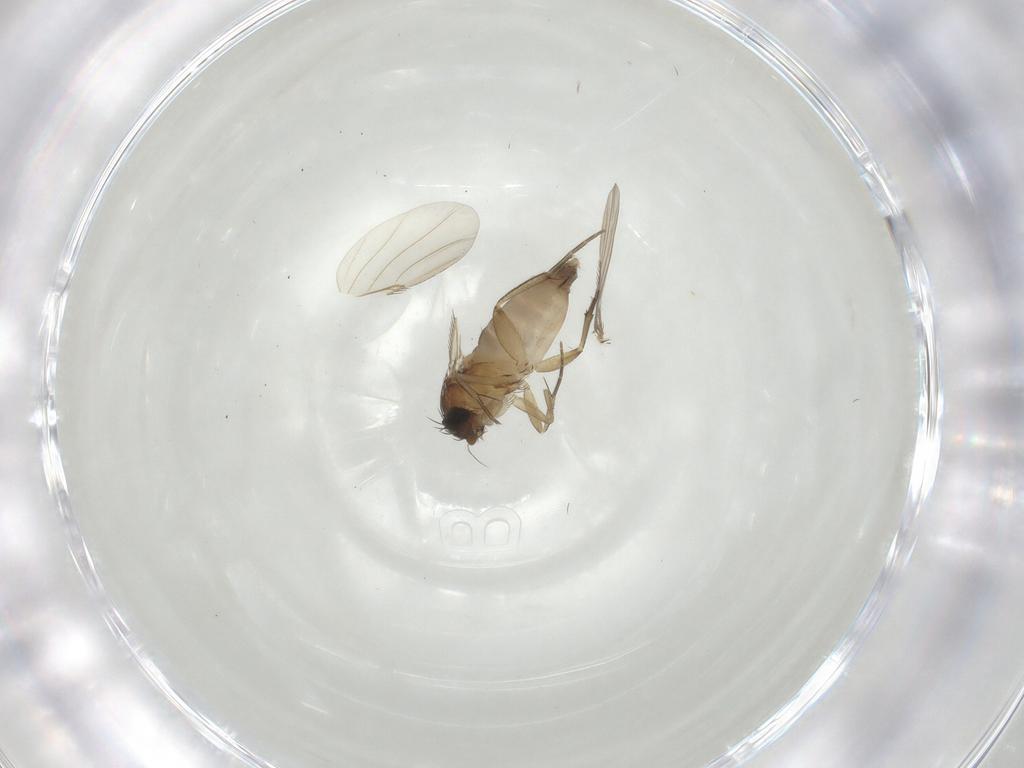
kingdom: Animalia
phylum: Arthropoda
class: Insecta
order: Diptera
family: Phoridae
